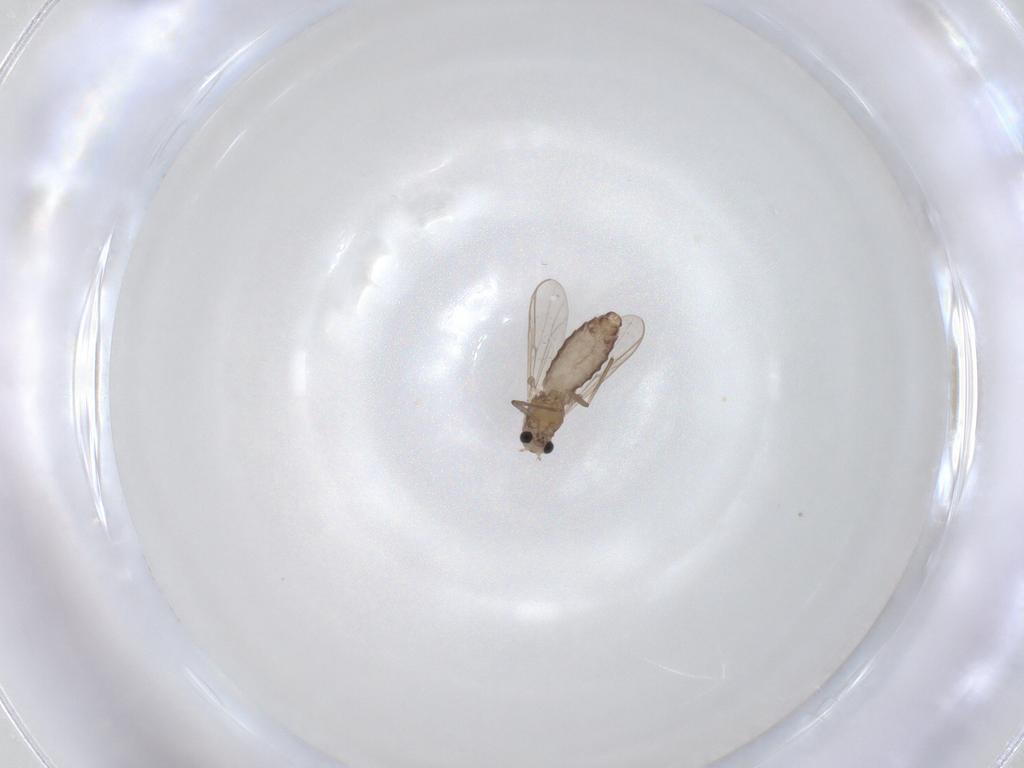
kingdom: Animalia
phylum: Arthropoda
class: Insecta
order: Diptera
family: Chironomidae
